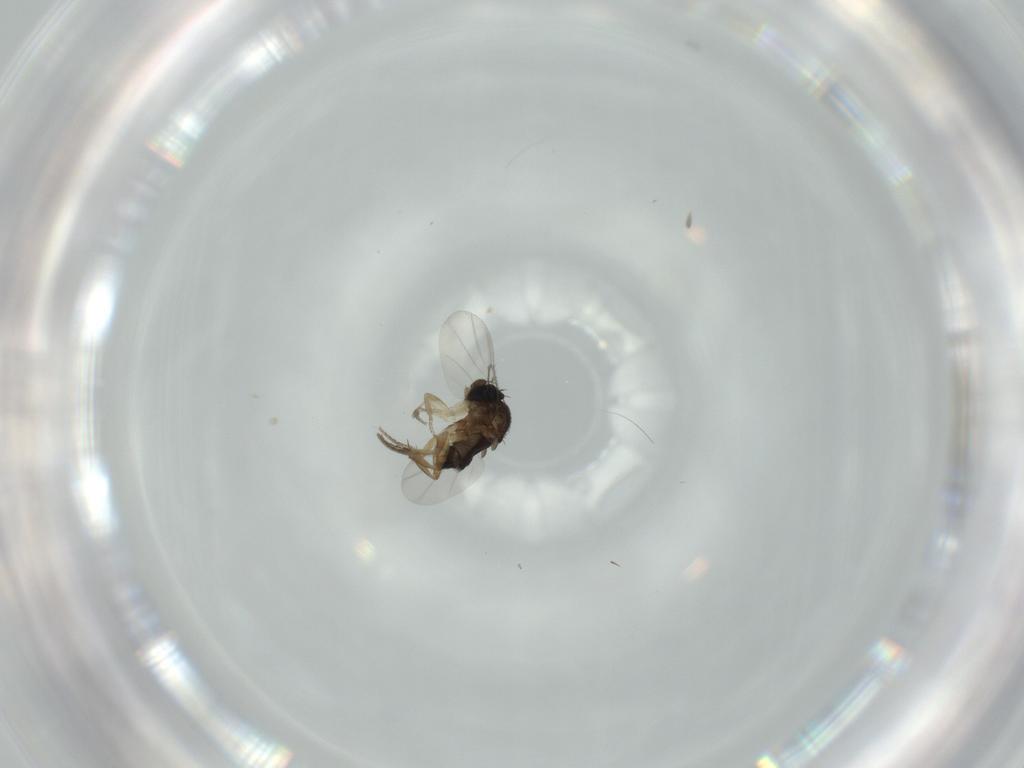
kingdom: Animalia
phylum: Arthropoda
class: Insecta
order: Diptera
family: Phoridae
